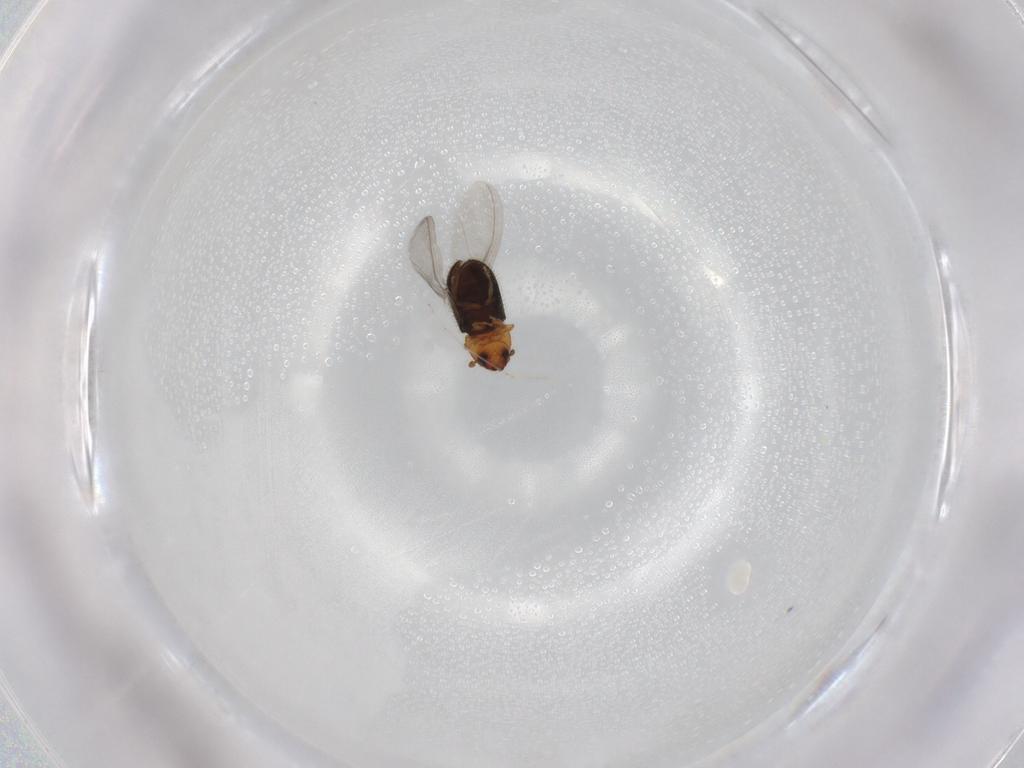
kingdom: Animalia
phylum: Arthropoda
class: Insecta
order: Coleoptera
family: Curculionidae
